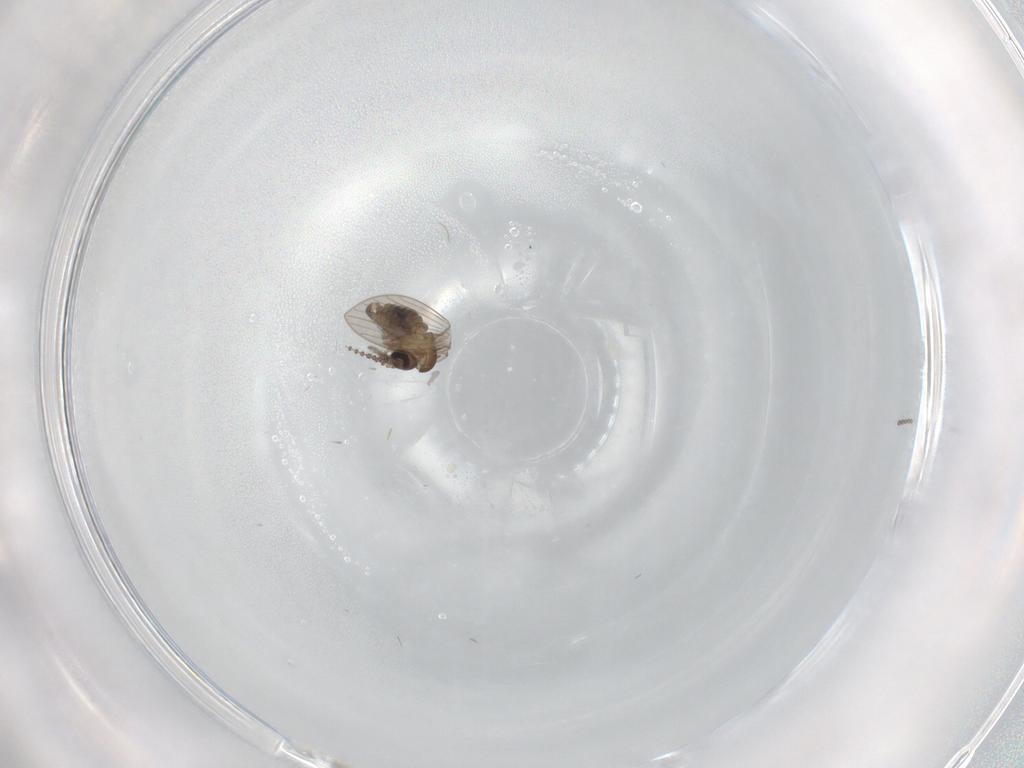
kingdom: Animalia
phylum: Arthropoda
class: Insecta
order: Diptera
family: Psychodidae
